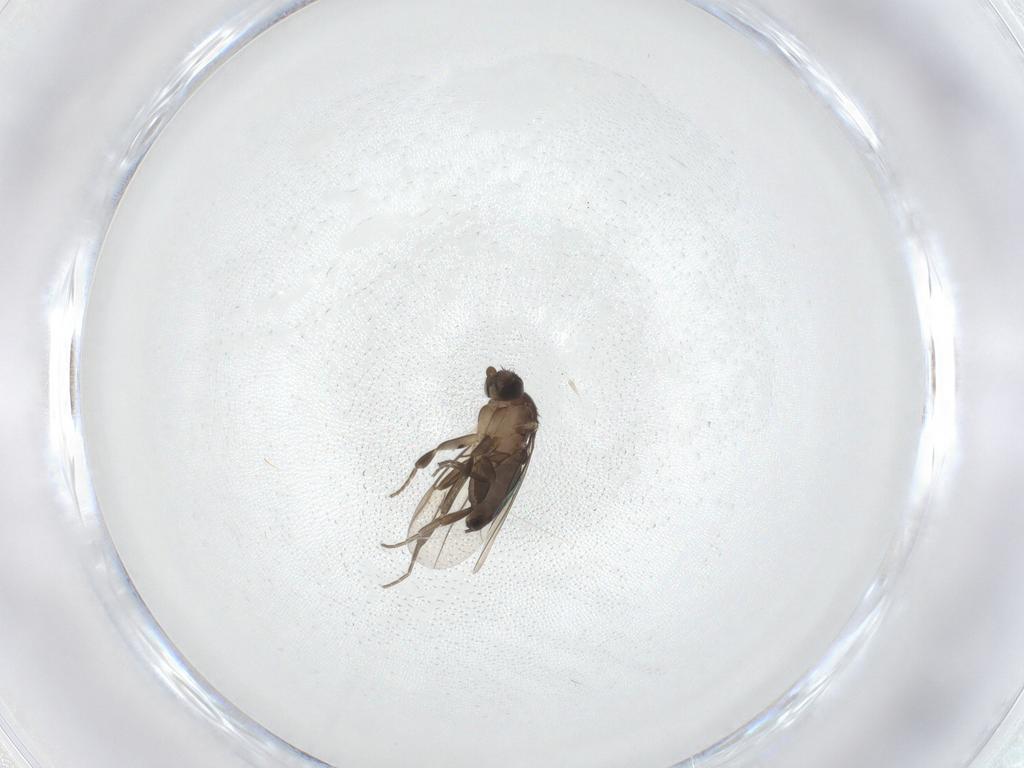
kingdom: Animalia
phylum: Arthropoda
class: Insecta
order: Diptera
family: Phoridae
